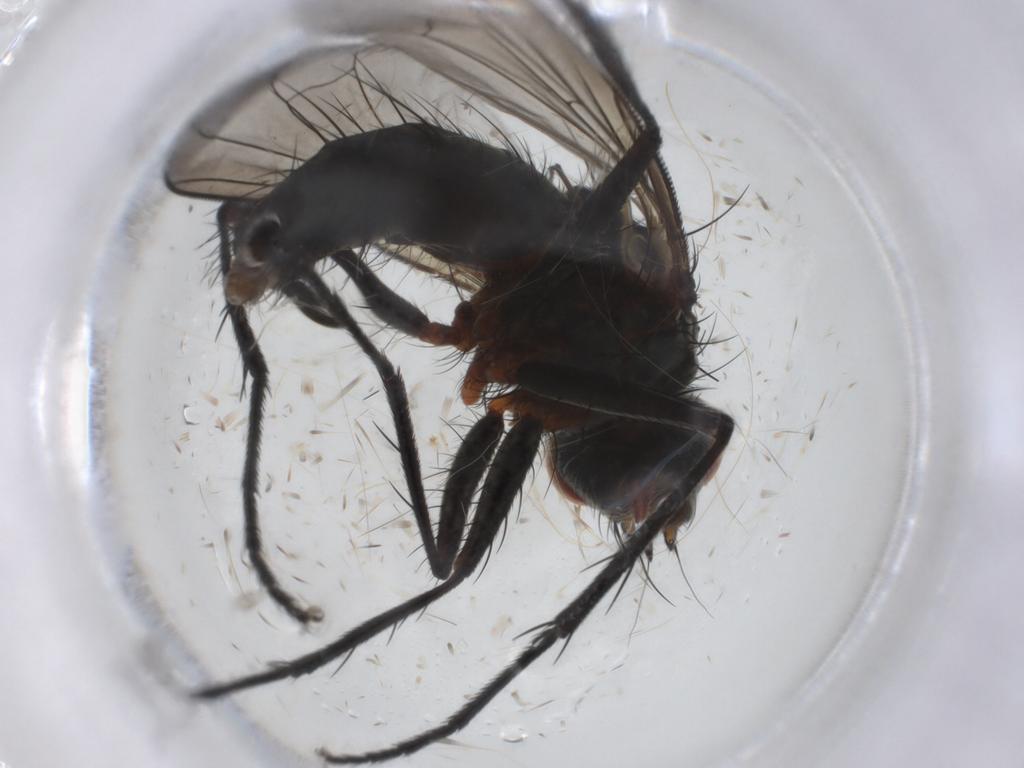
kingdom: Animalia
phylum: Arthropoda
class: Insecta
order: Diptera
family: Tachinidae
